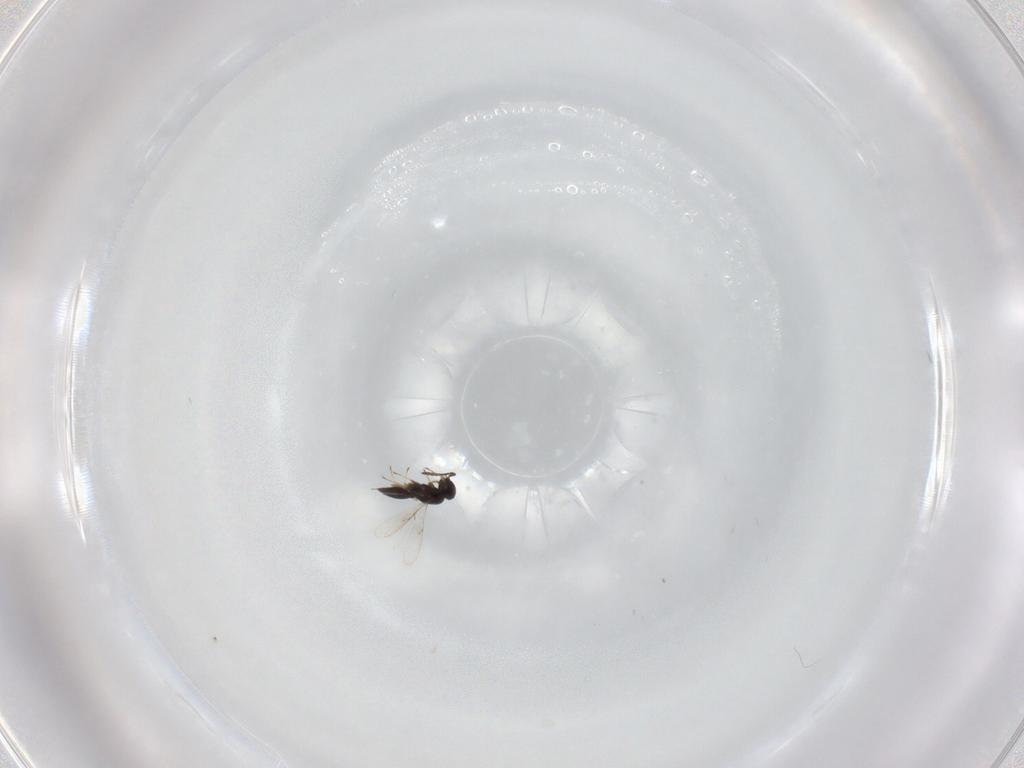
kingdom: Animalia
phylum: Arthropoda
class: Insecta
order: Hymenoptera
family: Scelionidae
